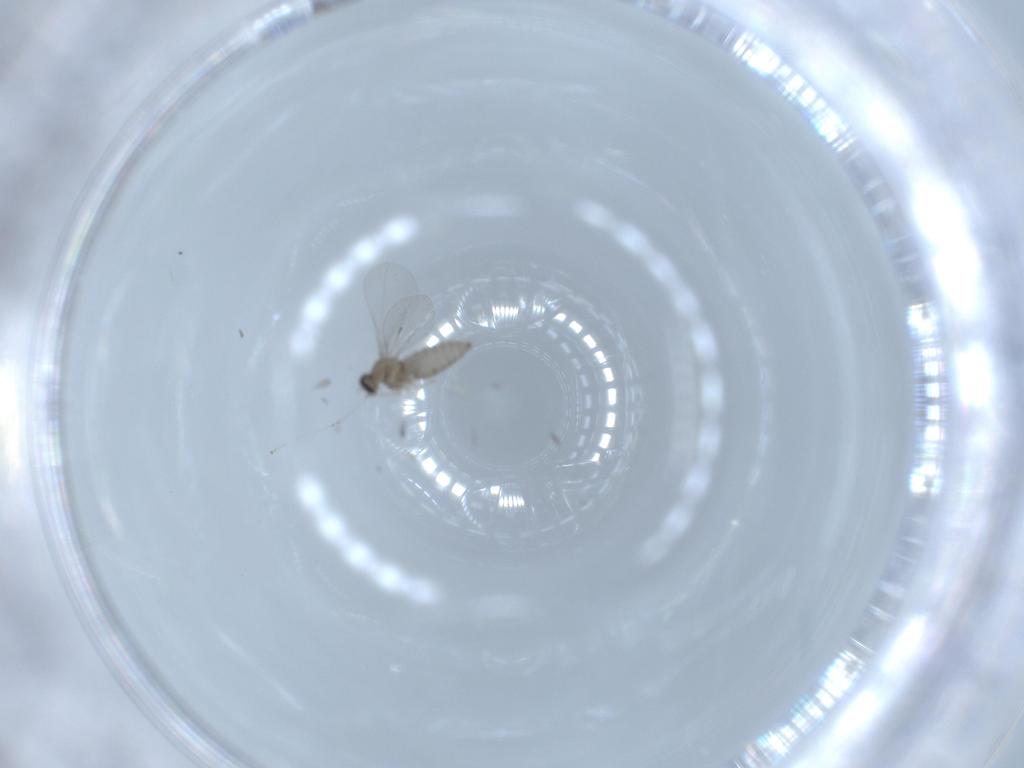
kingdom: Animalia
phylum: Arthropoda
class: Insecta
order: Diptera
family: Cecidomyiidae
